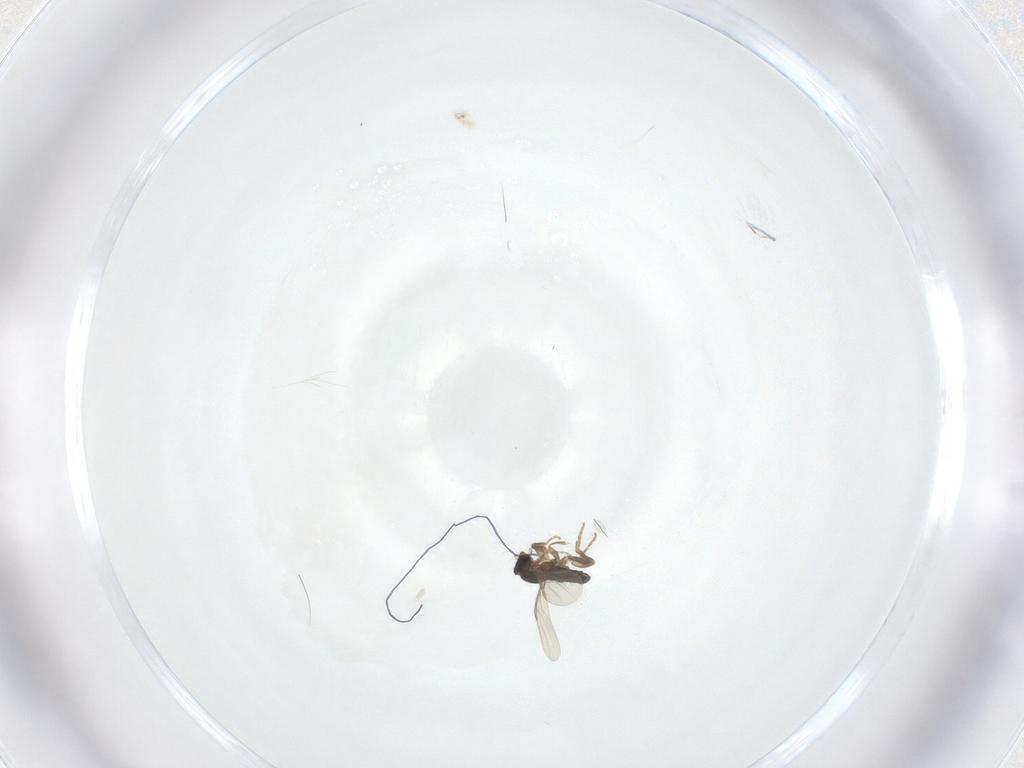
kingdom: Animalia
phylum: Arthropoda
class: Insecta
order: Diptera
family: Phoridae
